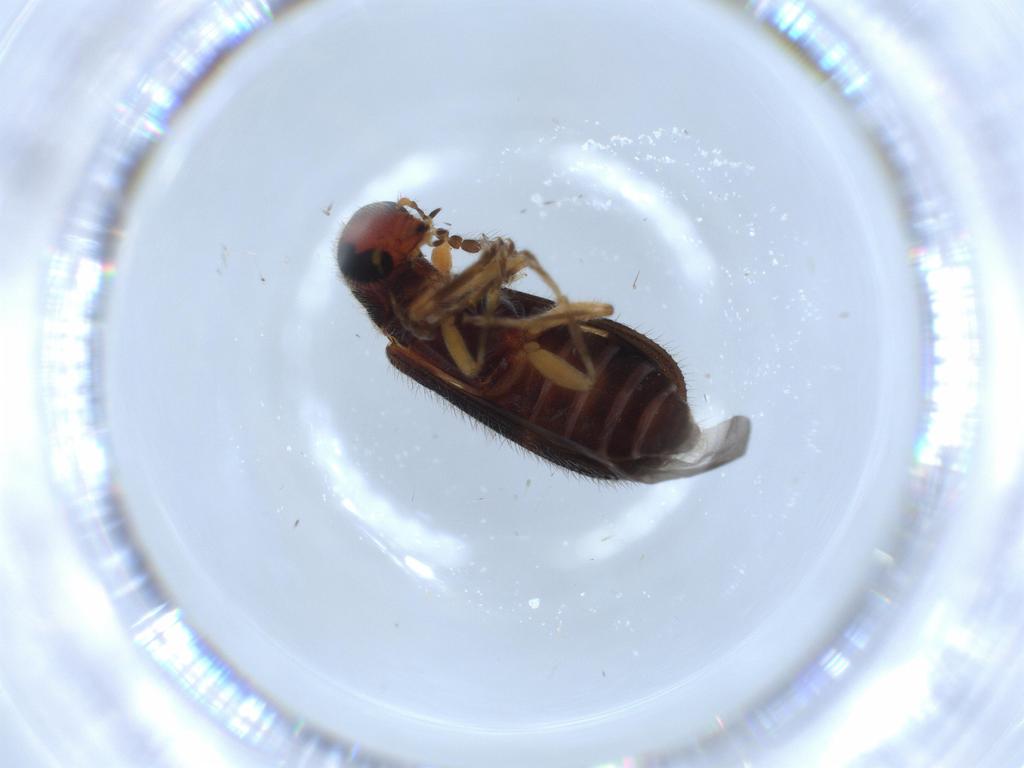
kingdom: Animalia
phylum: Arthropoda
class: Insecta
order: Coleoptera
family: Cleridae
